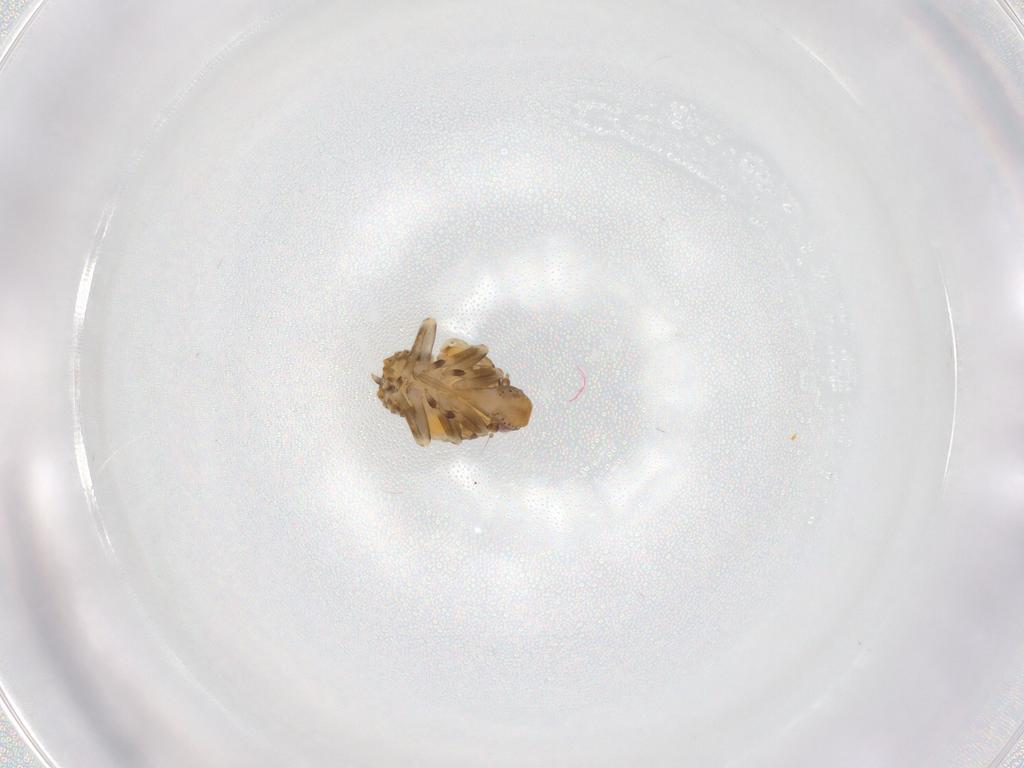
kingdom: Animalia
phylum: Arthropoda
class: Insecta
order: Hemiptera
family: Flatidae
